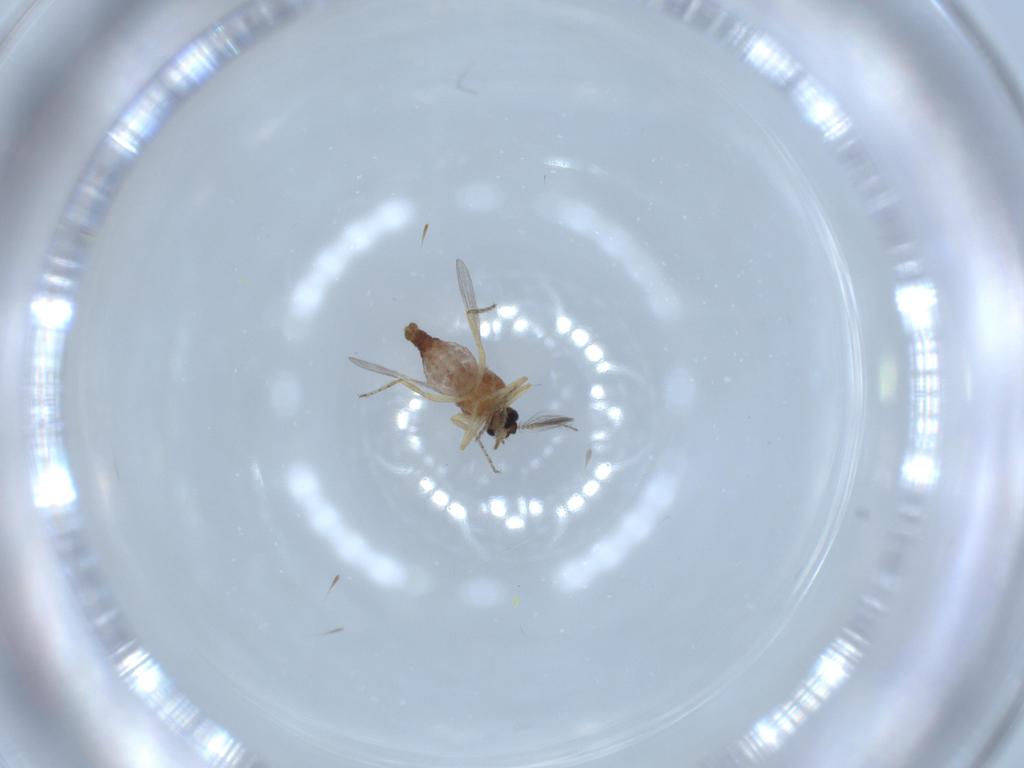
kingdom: Animalia
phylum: Arthropoda
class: Insecta
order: Diptera
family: Ceratopogonidae
